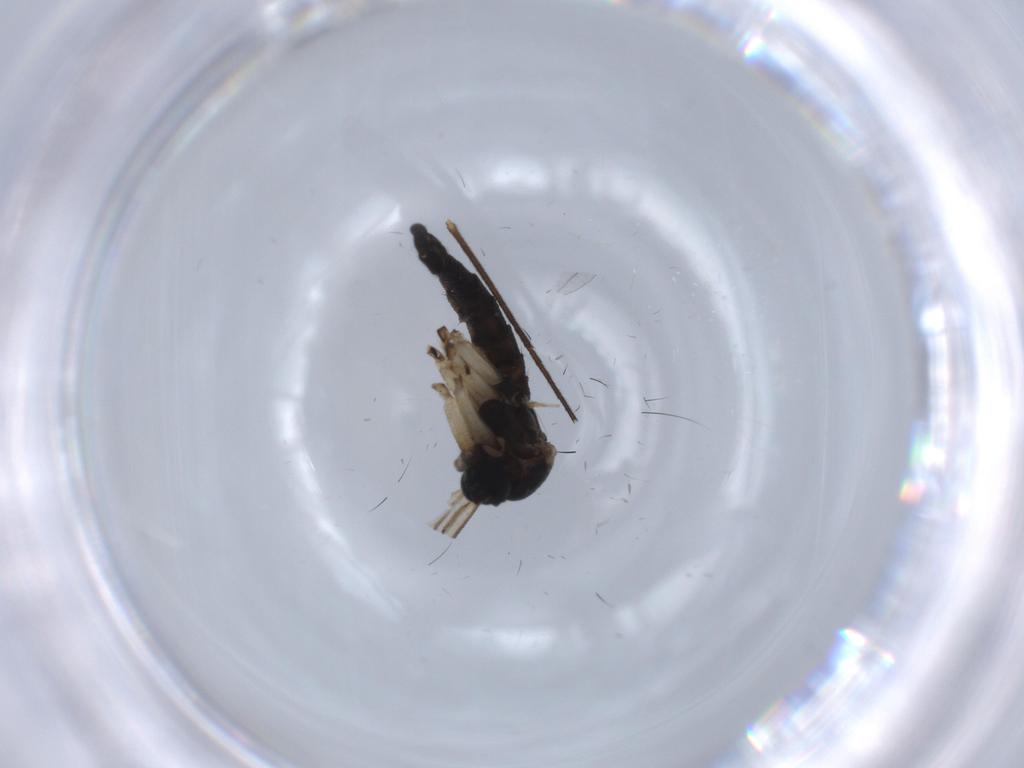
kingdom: Animalia
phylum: Arthropoda
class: Insecta
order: Diptera
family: Sciaridae
